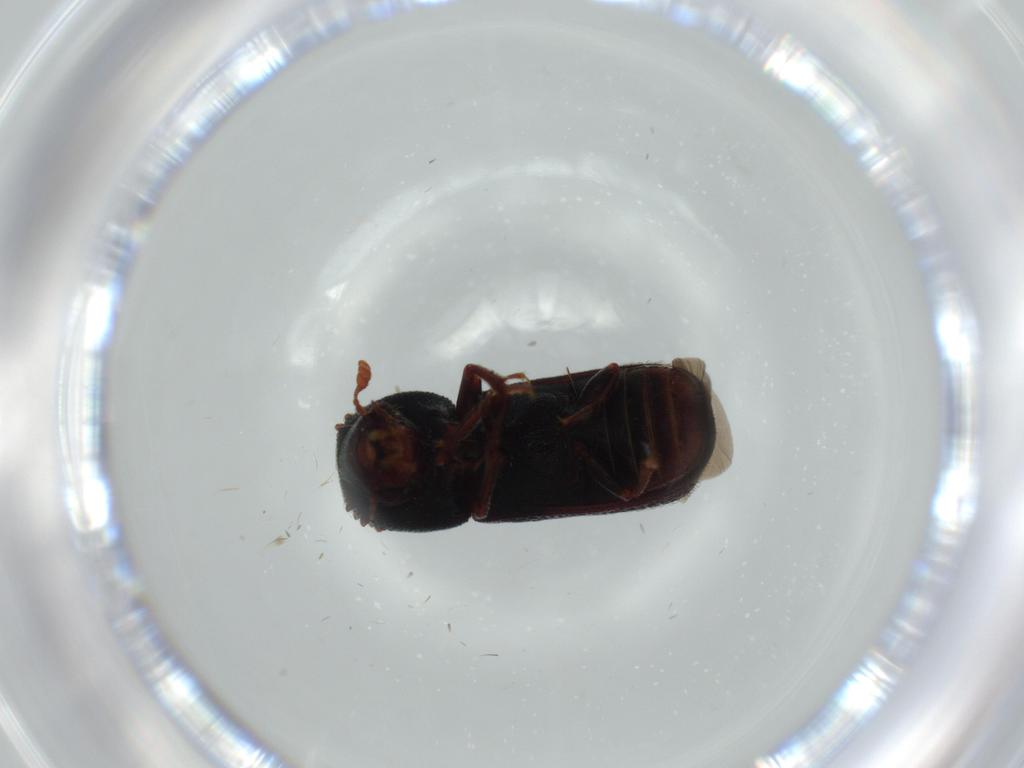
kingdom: Animalia
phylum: Arthropoda
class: Insecta
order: Coleoptera
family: Bostrichidae
